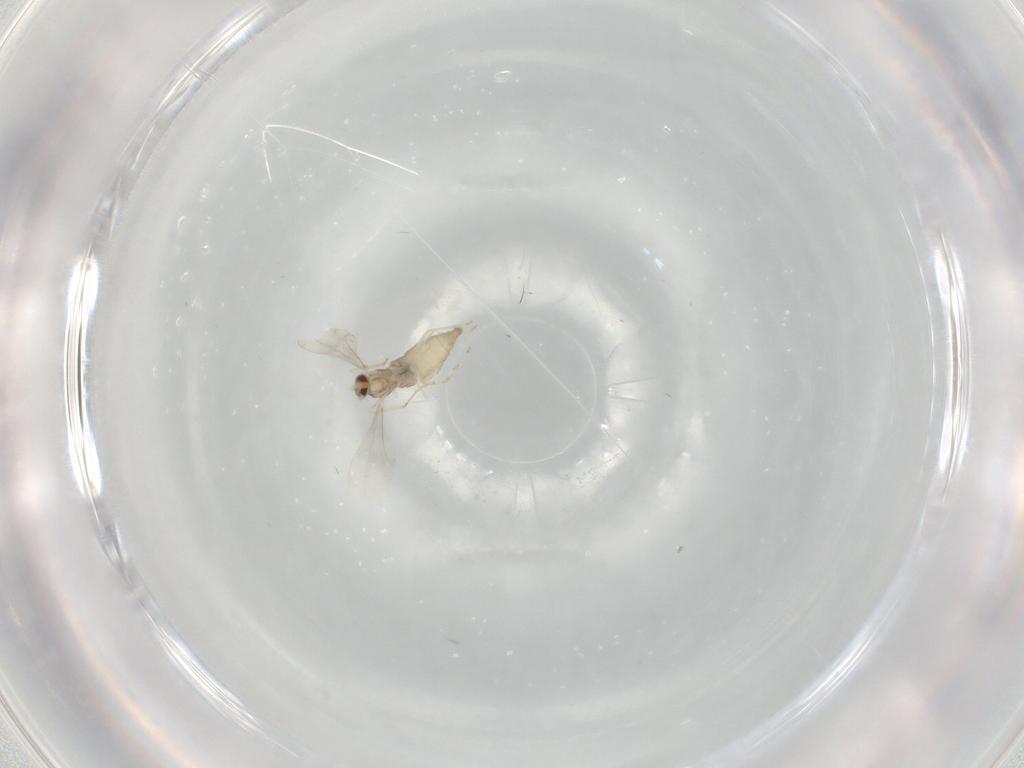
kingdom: Animalia
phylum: Arthropoda
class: Insecta
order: Diptera
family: Cecidomyiidae
